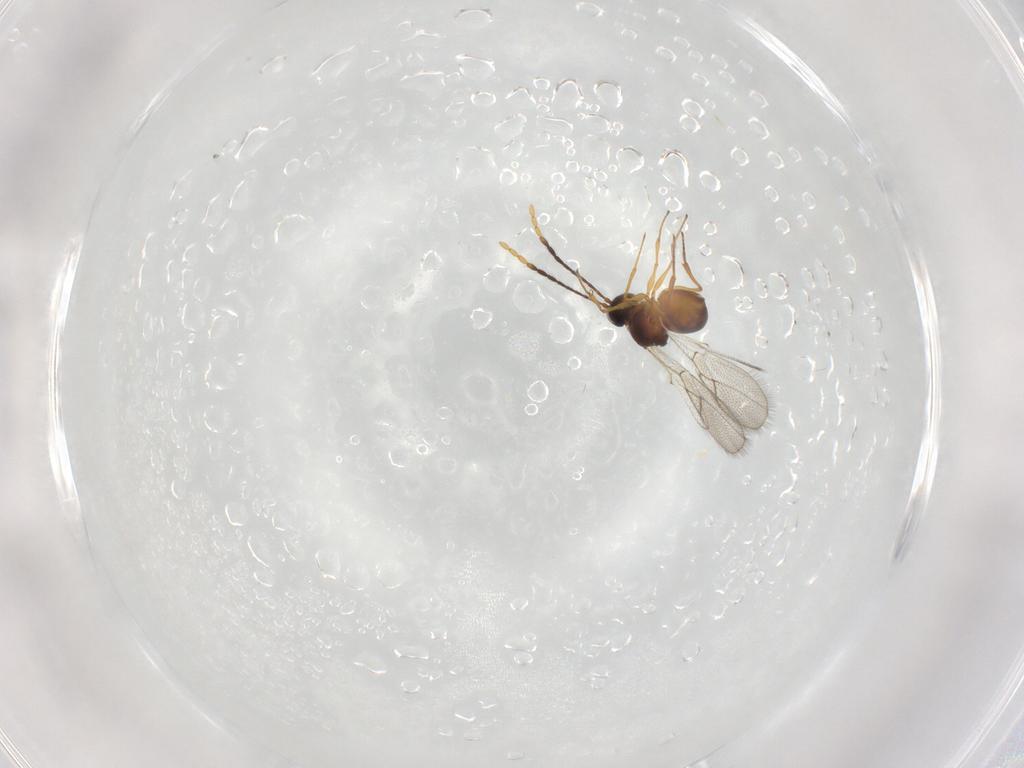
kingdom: Animalia
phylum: Arthropoda
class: Insecta
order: Hymenoptera
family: Figitidae
